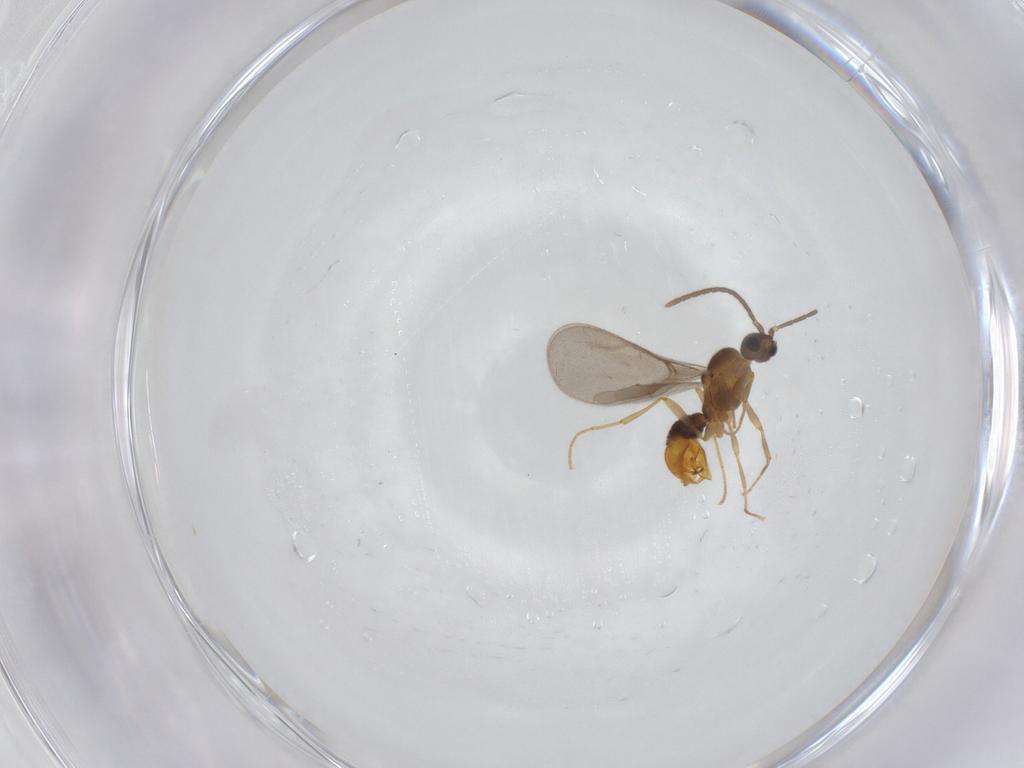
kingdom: Animalia
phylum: Arthropoda
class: Insecta
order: Hymenoptera
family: Formicidae
